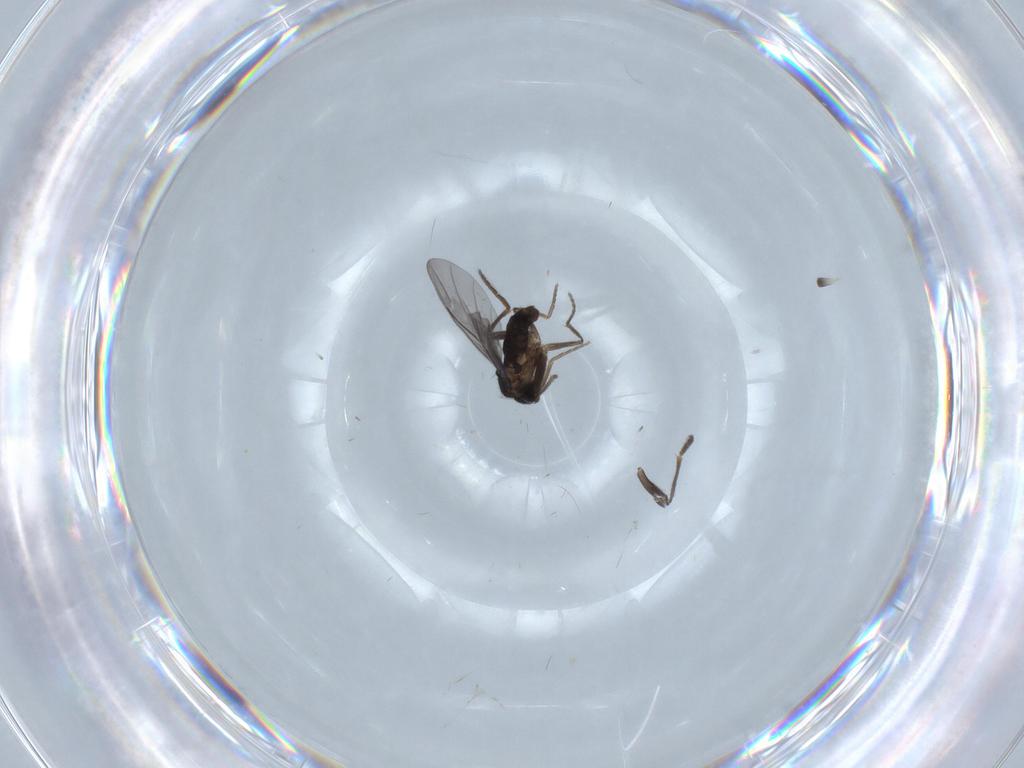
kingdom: Animalia
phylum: Arthropoda
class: Insecta
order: Diptera
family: Phoridae
